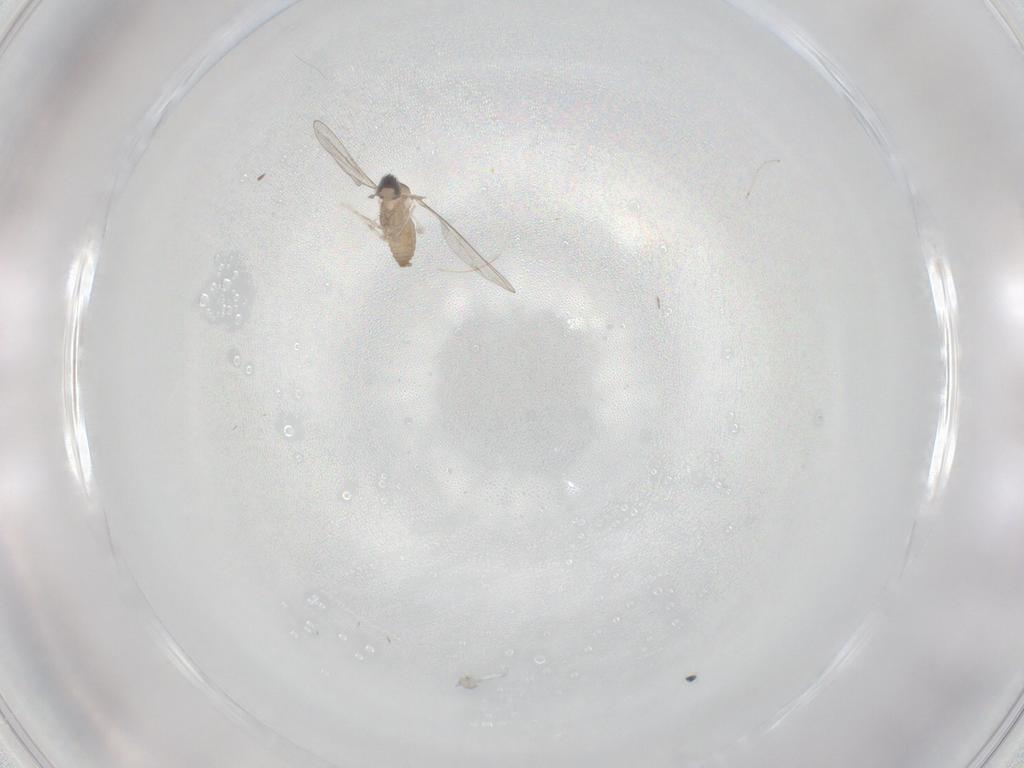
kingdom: Animalia
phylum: Arthropoda
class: Insecta
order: Diptera
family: Cecidomyiidae
